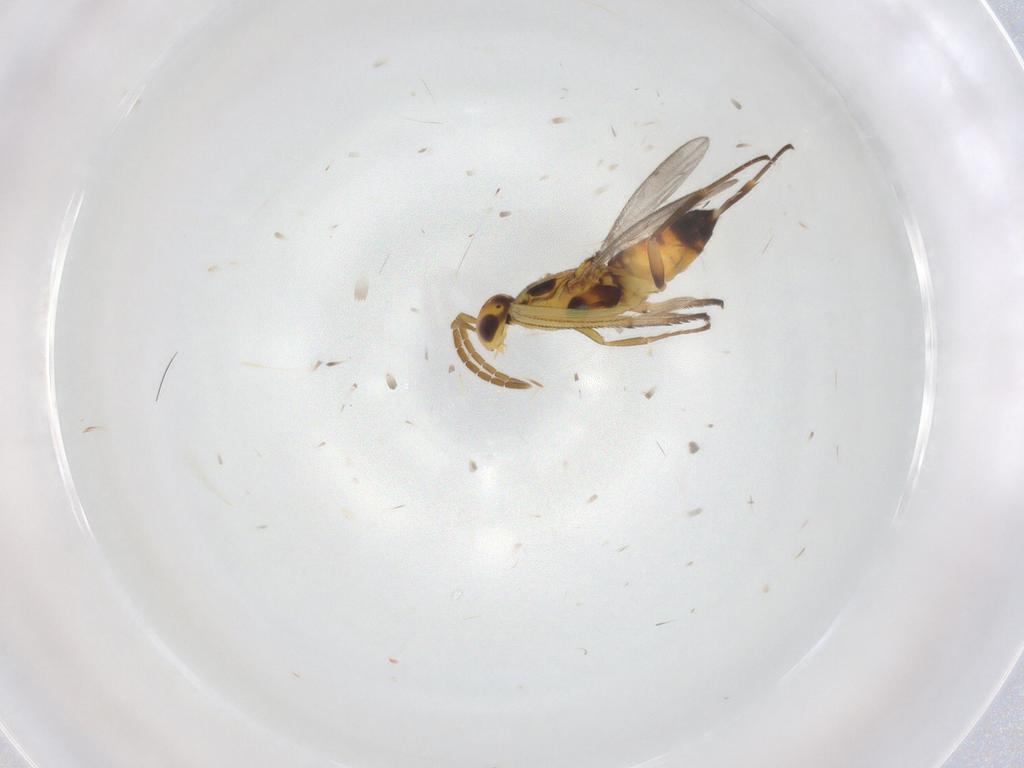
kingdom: Animalia
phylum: Arthropoda
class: Insecta
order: Hymenoptera
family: Eupelmidae
